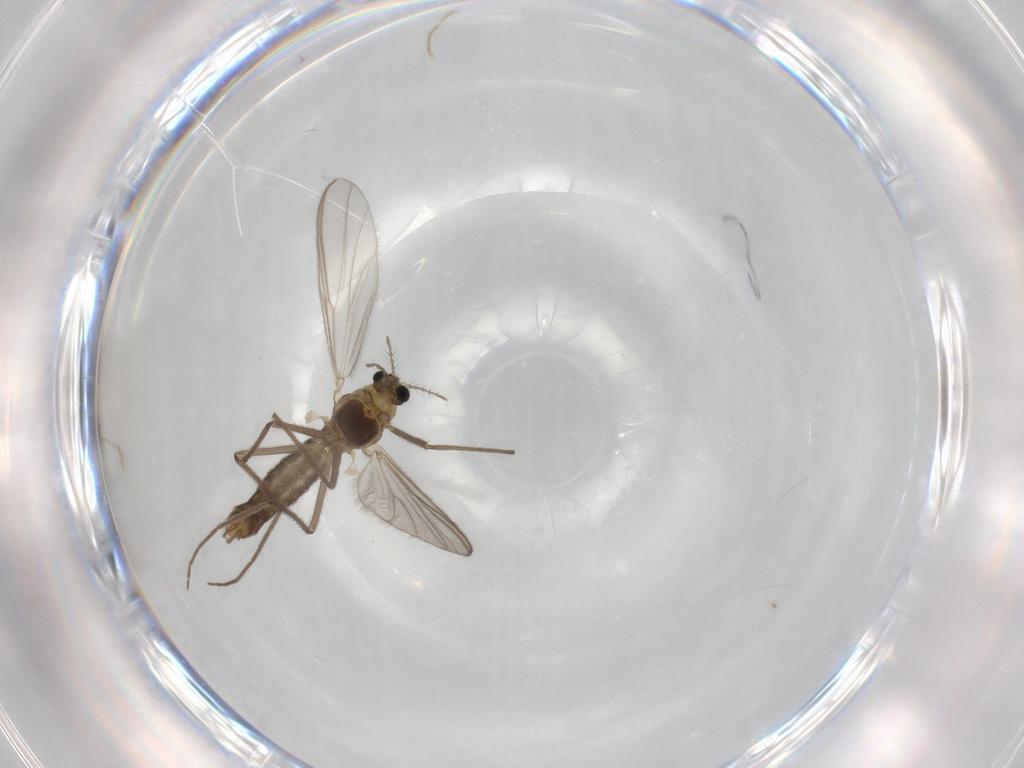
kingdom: Animalia
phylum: Arthropoda
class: Insecta
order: Diptera
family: Chironomidae
